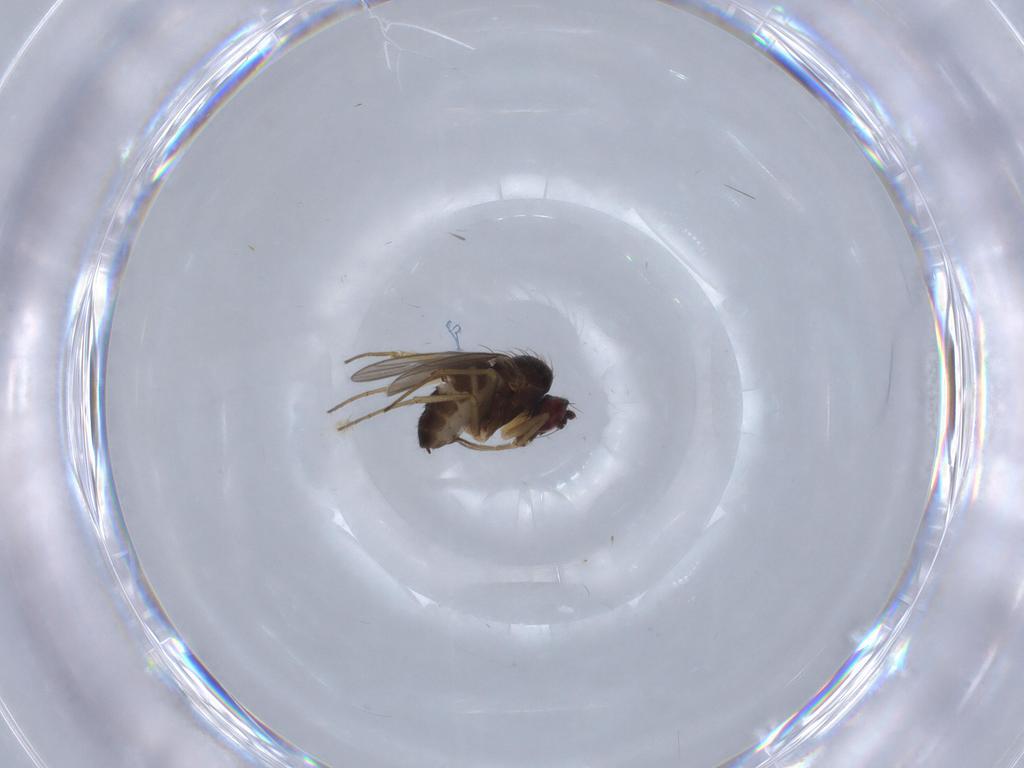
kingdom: Animalia
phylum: Arthropoda
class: Insecta
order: Diptera
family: Dolichopodidae
